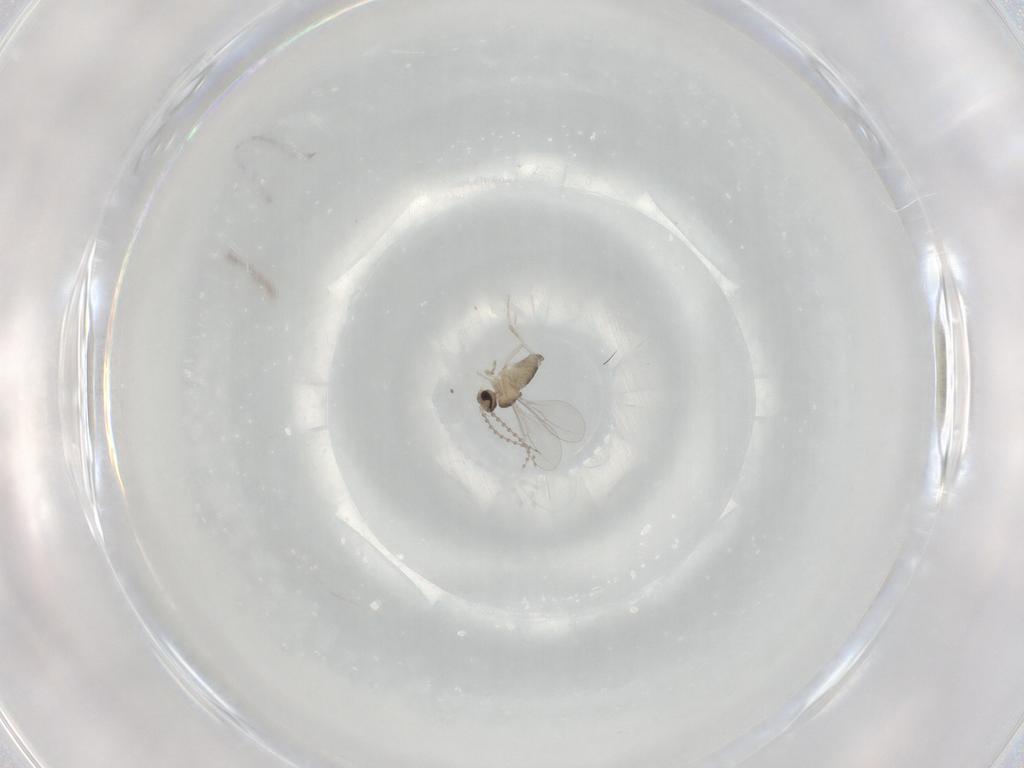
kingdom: Animalia
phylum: Arthropoda
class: Insecta
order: Diptera
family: Cecidomyiidae
